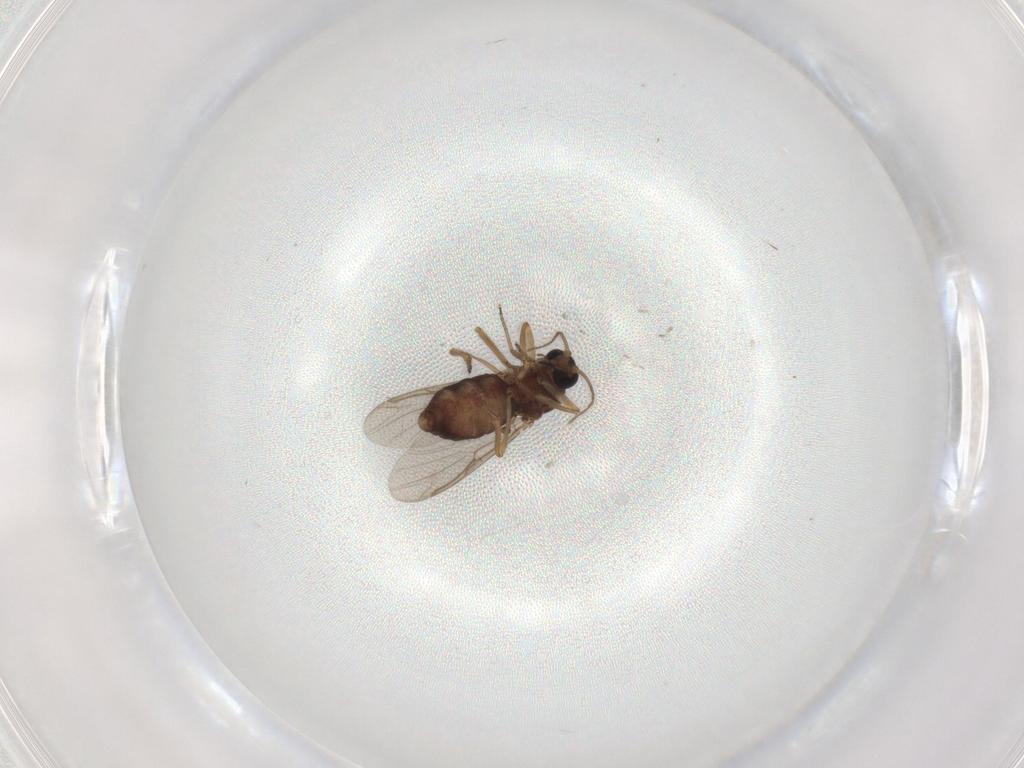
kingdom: Animalia
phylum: Arthropoda
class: Insecta
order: Diptera
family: Ceratopogonidae
